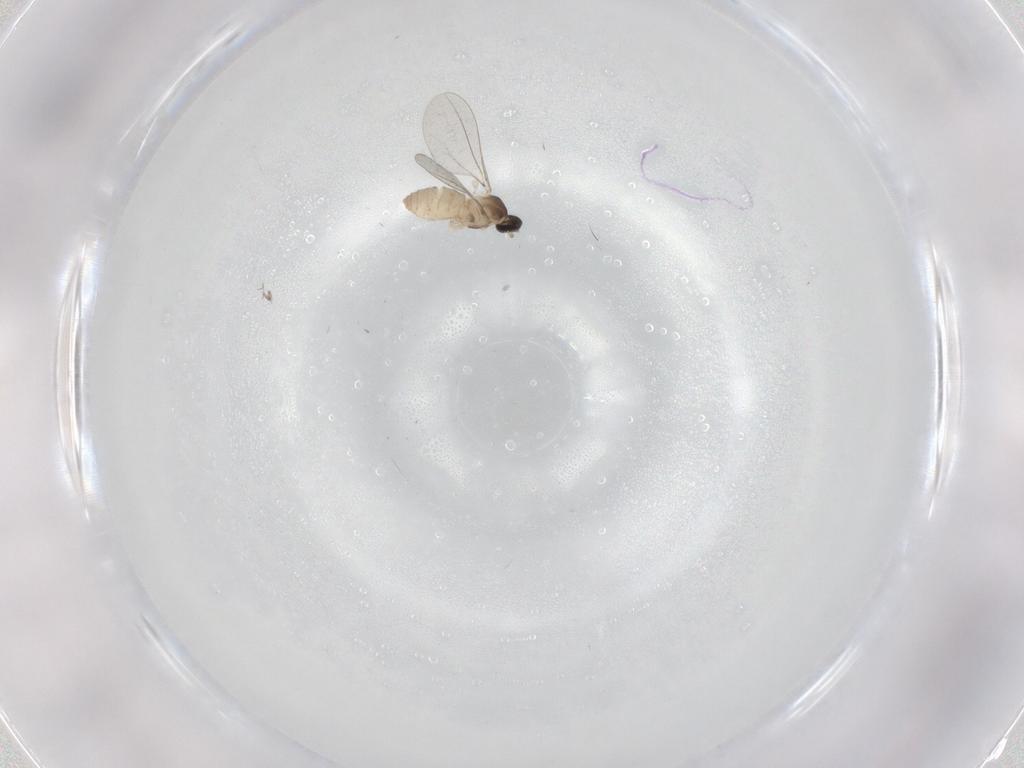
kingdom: Animalia
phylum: Arthropoda
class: Insecta
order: Diptera
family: Cecidomyiidae
